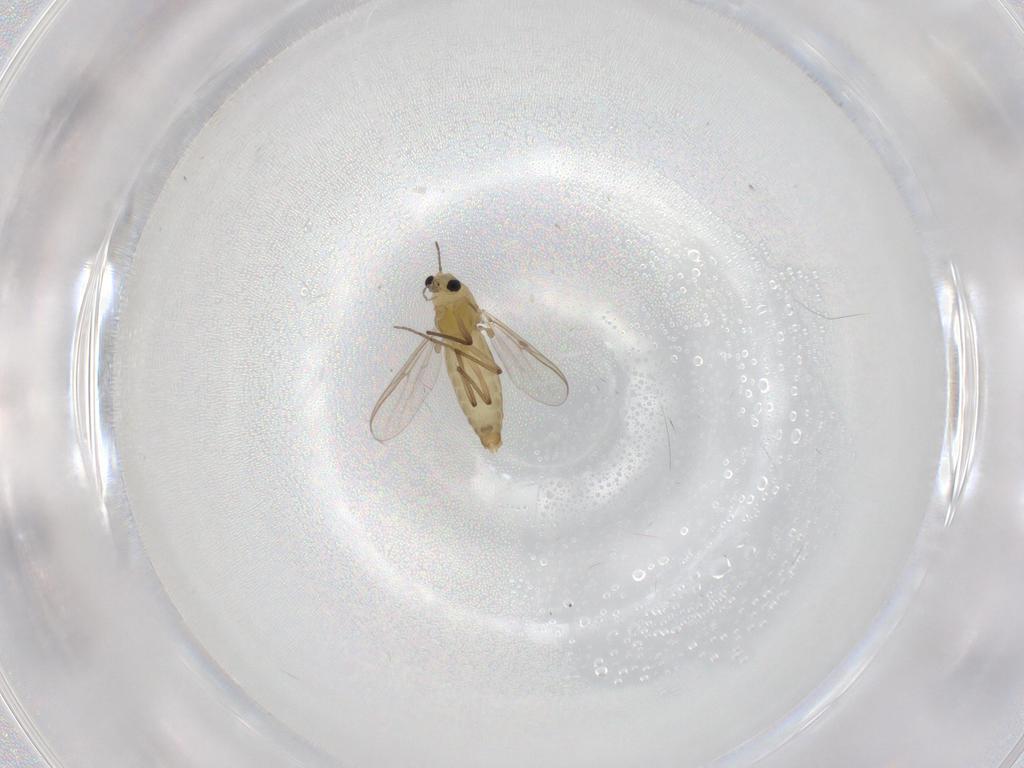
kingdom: Animalia
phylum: Arthropoda
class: Insecta
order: Diptera
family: Chironomidae
